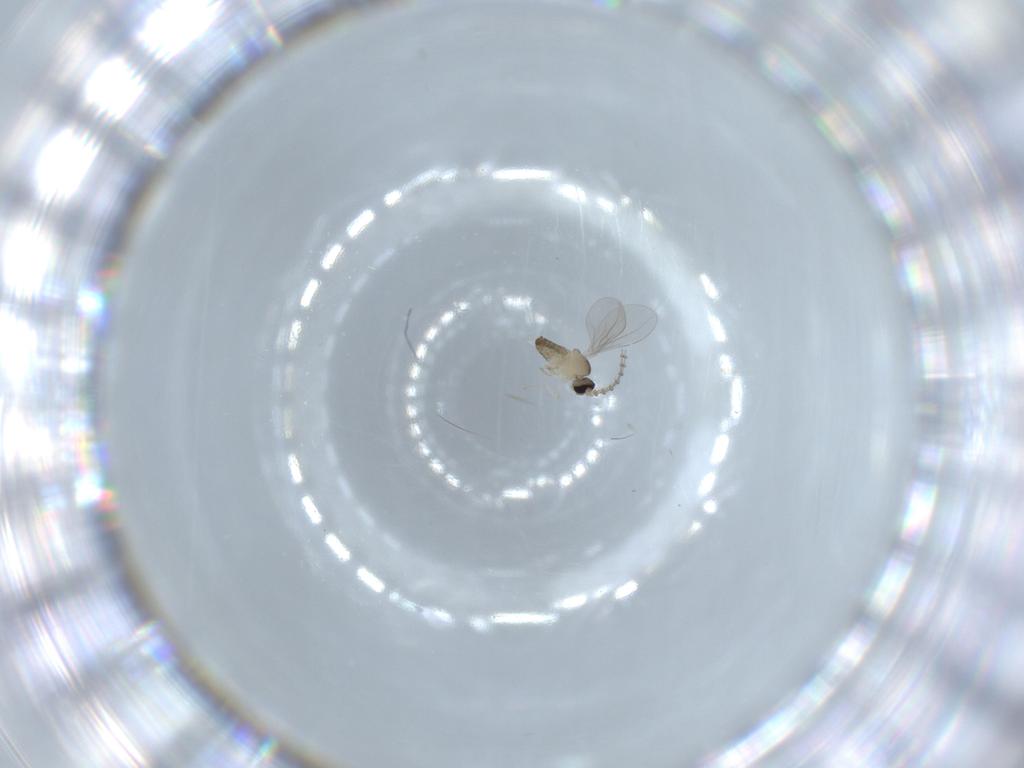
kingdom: Animalia
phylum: Arthropoda
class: Insecta
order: Diptera
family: Cecidomyiidae
